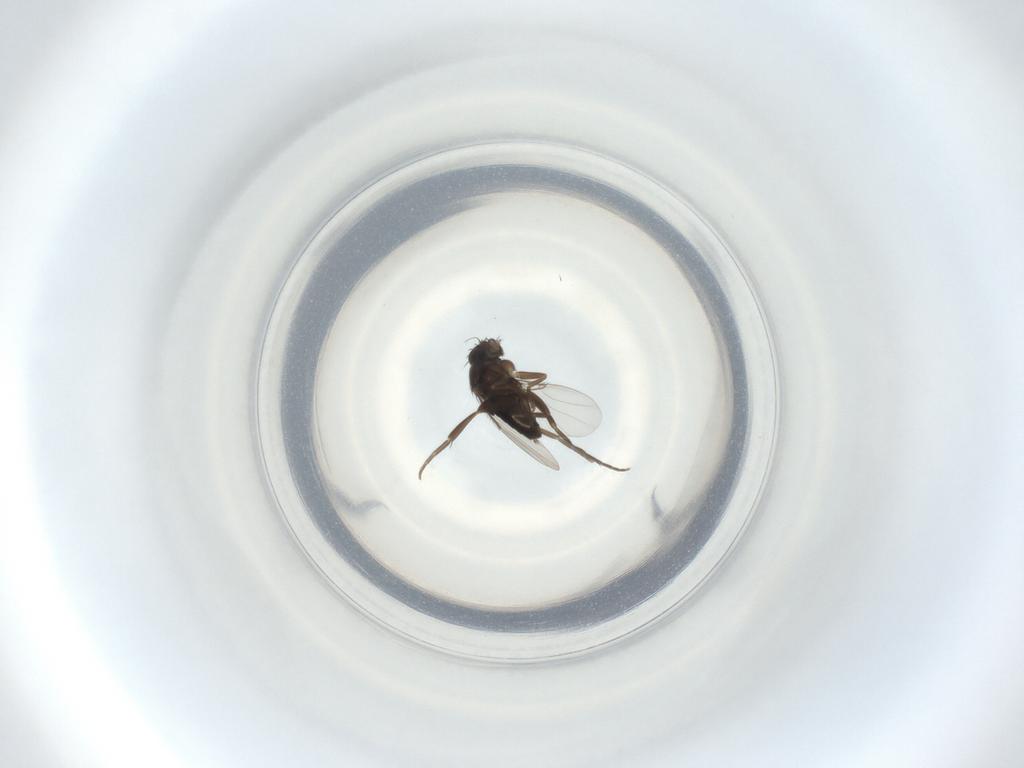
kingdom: Animalia
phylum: Arthropoda
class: Insecta
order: Diptera
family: Phoridae
